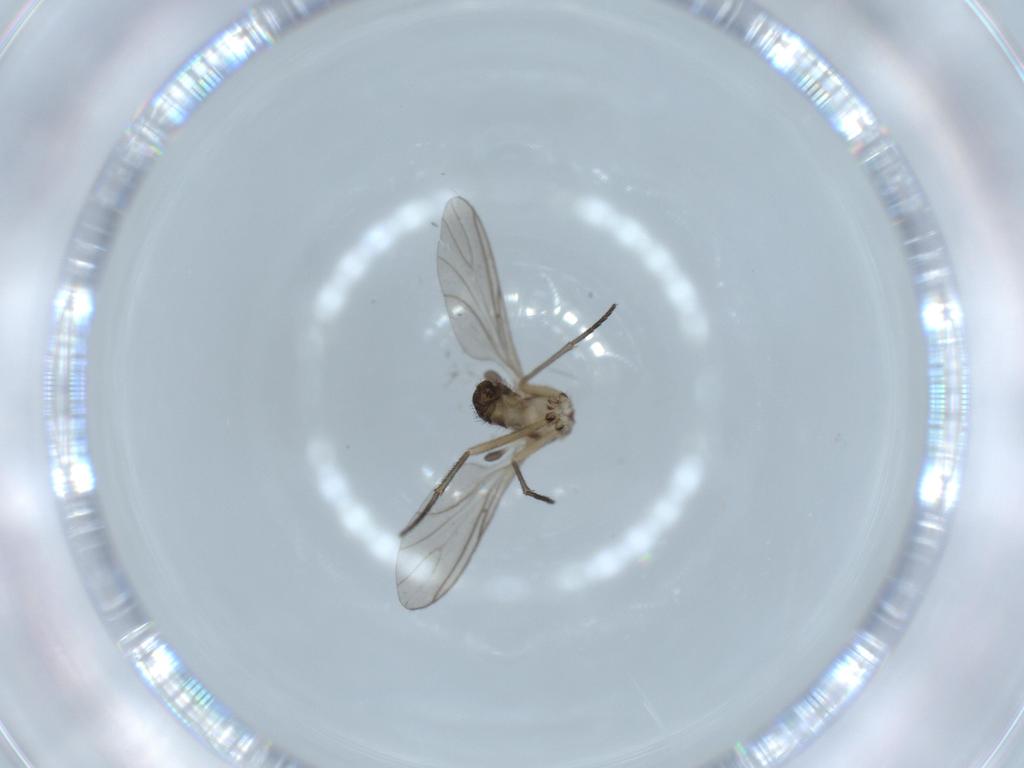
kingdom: Animalia
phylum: Arthropoda
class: Insecta
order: Diptera
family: Sciaridae
